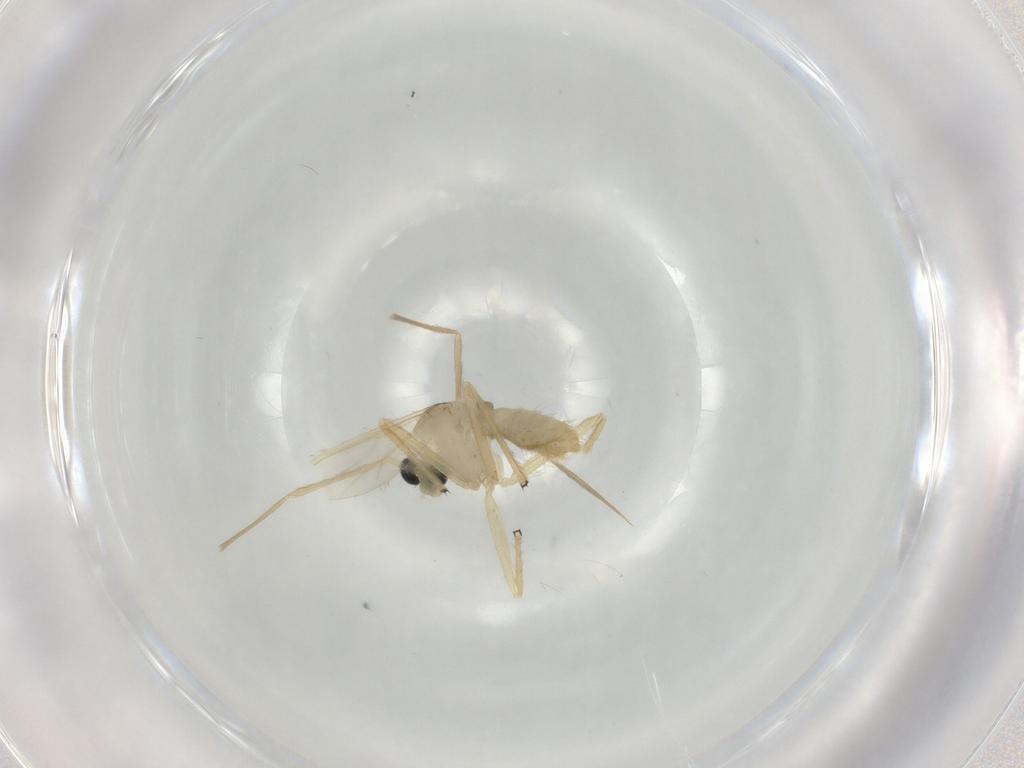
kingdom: Animalia
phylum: Arthropoda
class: Insecta
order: Diptera
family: Chironomidae
